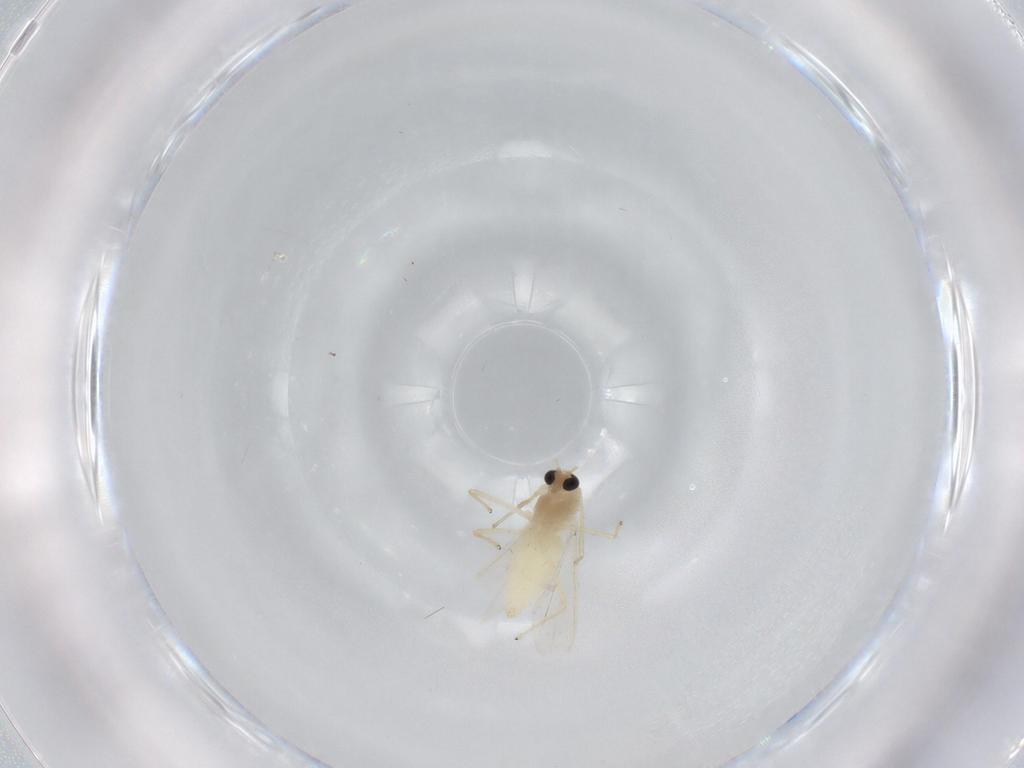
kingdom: Animalia
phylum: Arthropoda
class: Insecta
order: Diptera
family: Chironomidae
